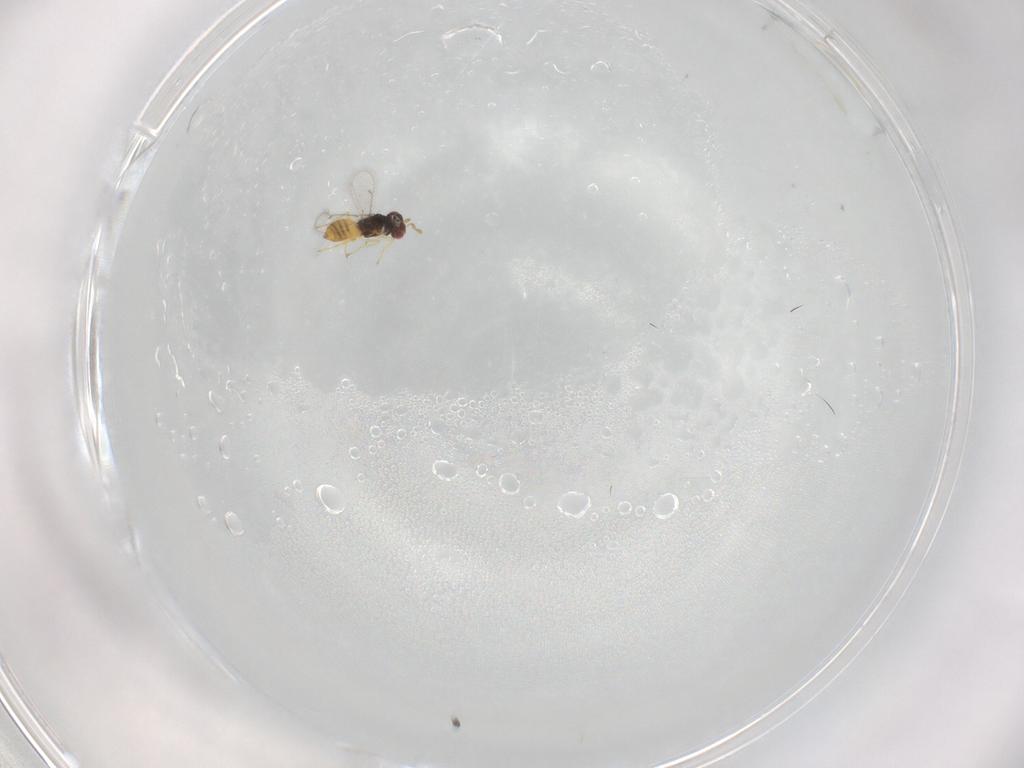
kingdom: Animalia
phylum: Arthropoda
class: Insecta
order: Hymenoptera
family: Eulophidae
